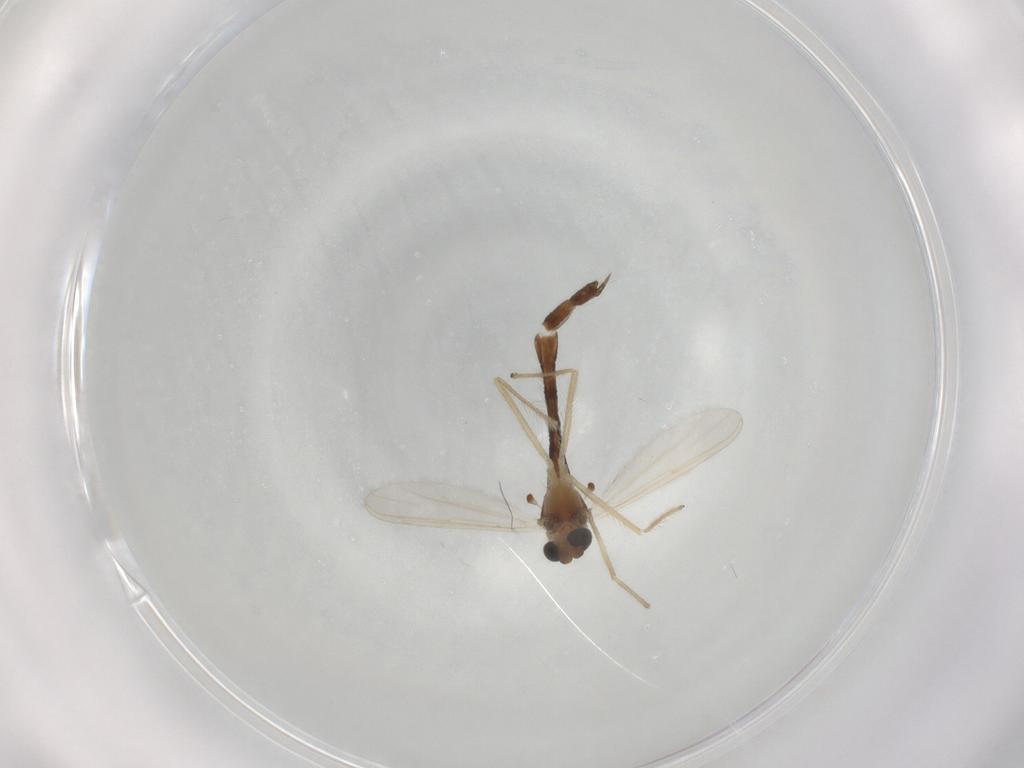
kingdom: Animalia
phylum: Arthropoda
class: Insecta
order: Diptera
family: Chironomidae
